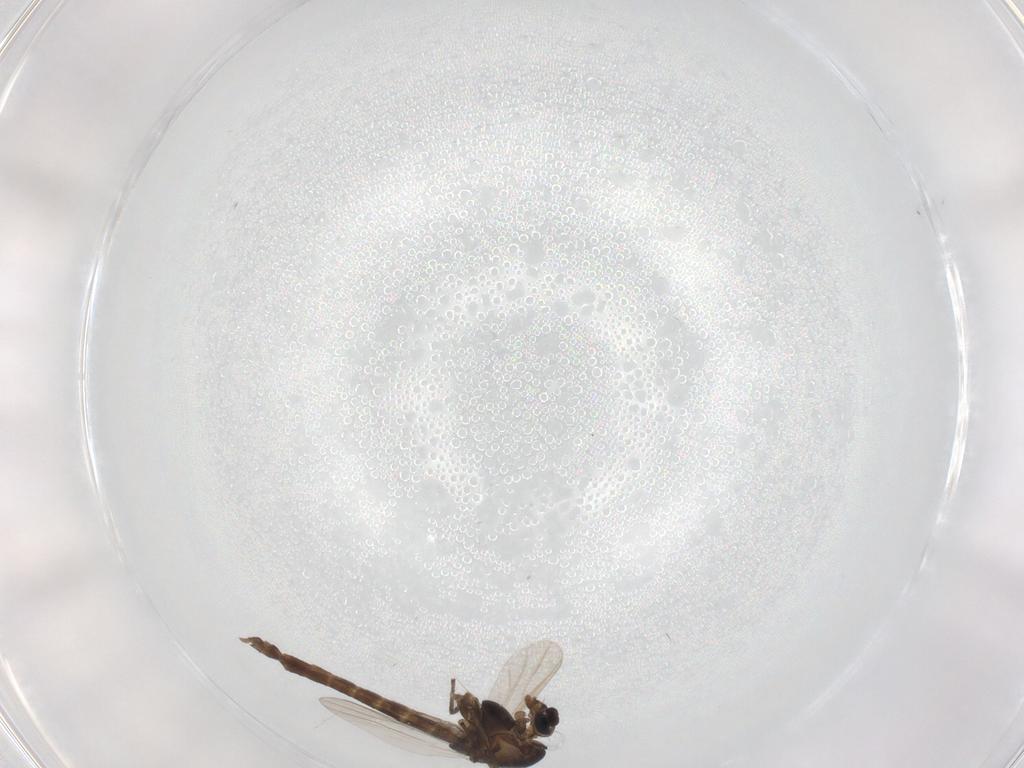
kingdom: Animalia
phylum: Arthropoda
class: Insecta
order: Diptera
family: Chironomidae
